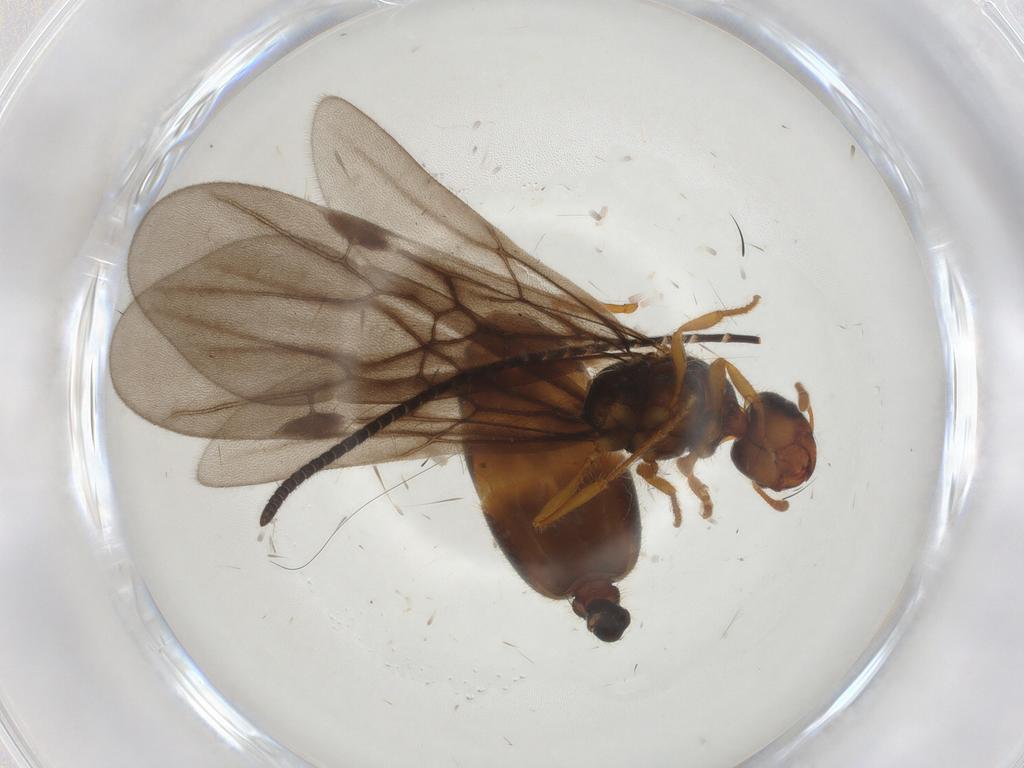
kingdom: Animalia
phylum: Arthropoda
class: Insecta
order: Hymenoptera
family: Formicidae
